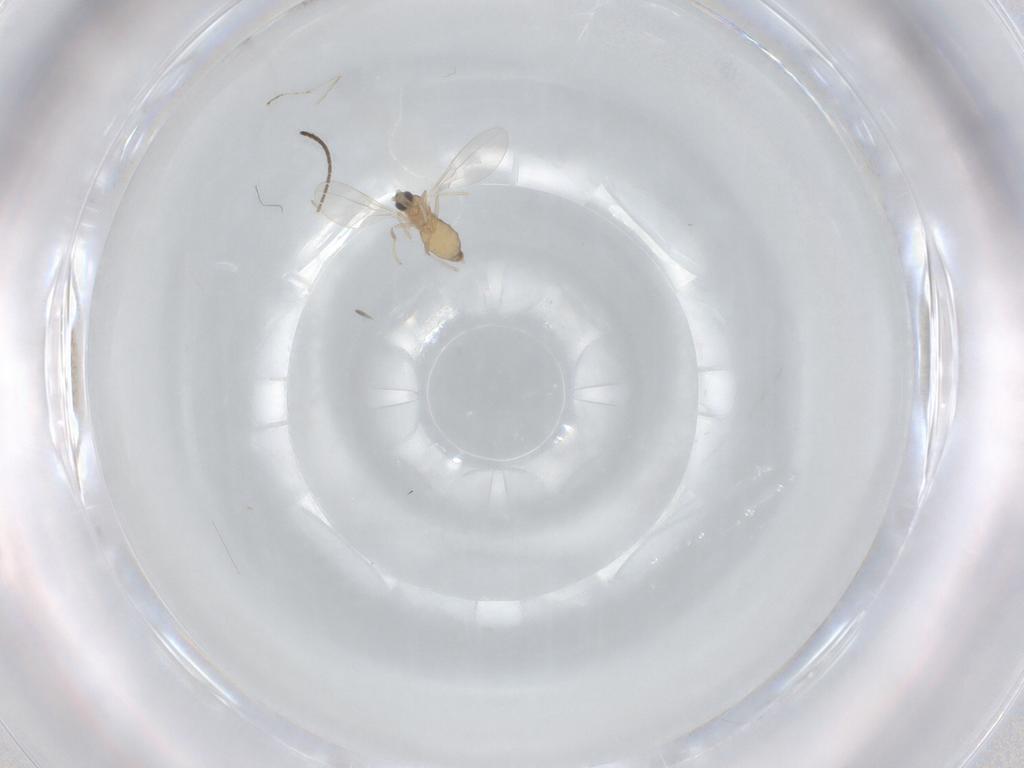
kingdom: Animalia
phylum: Arthropoda
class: Insecta
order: Diptera
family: Cecidomyiidae
